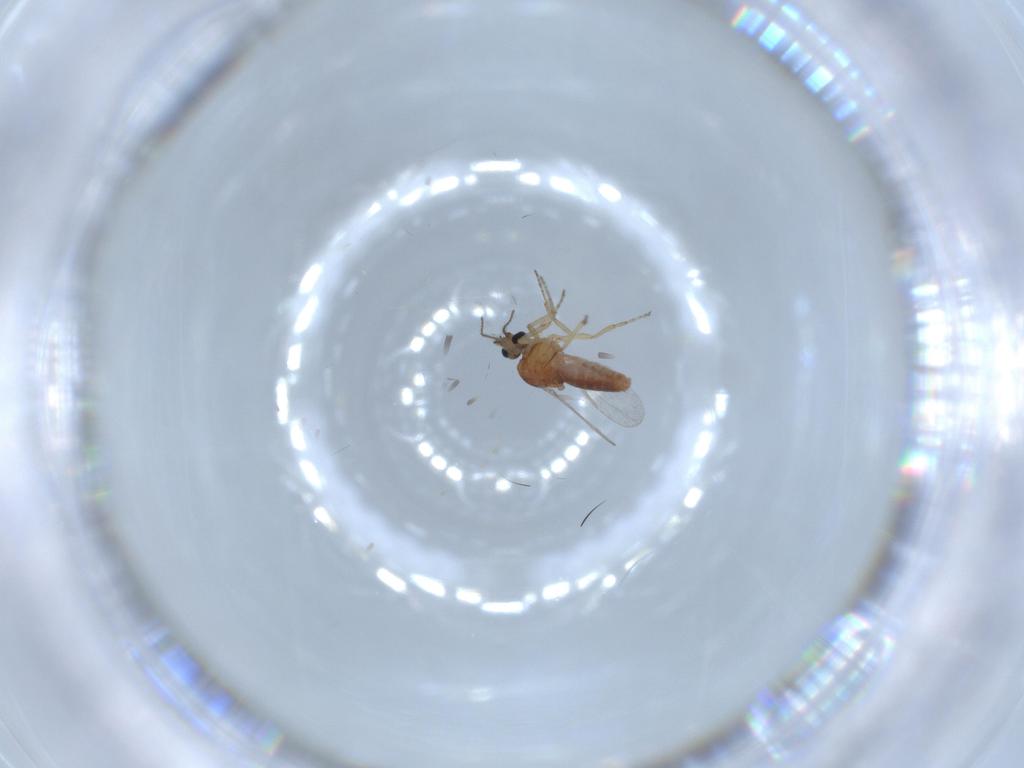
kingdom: Animalia
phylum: Arthropoda
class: Insecta
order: Diptera
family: Ceratopogonidae
